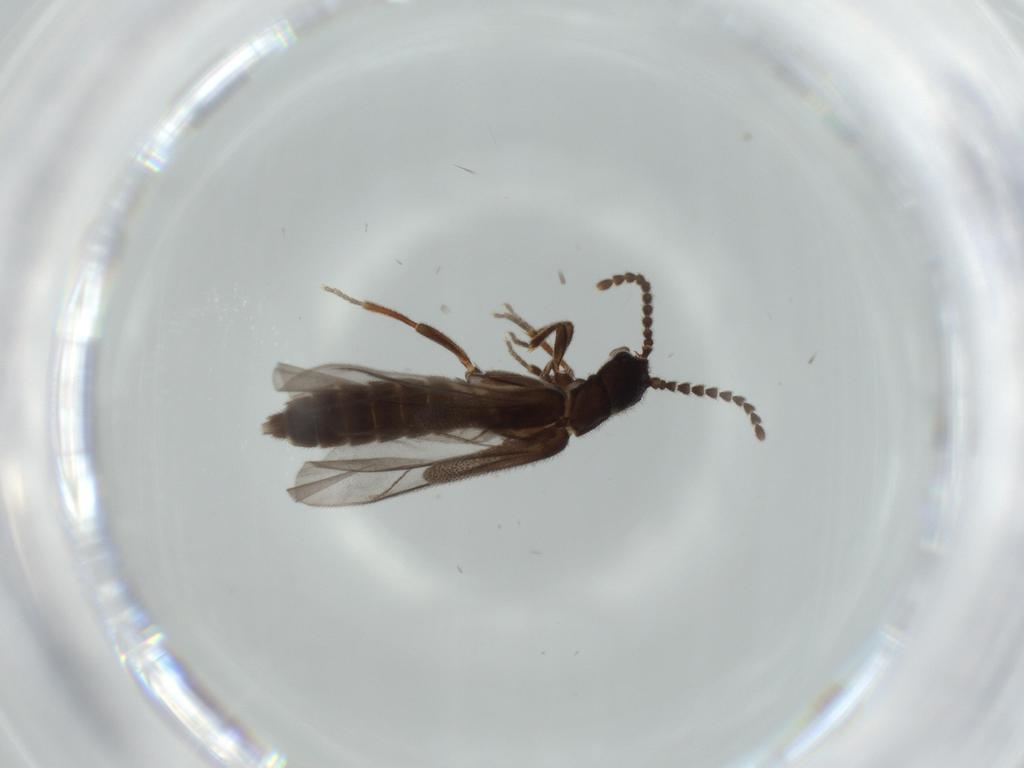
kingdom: Animalia
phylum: Arthropoda
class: Insecta
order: Coleoptera
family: Omethidae
